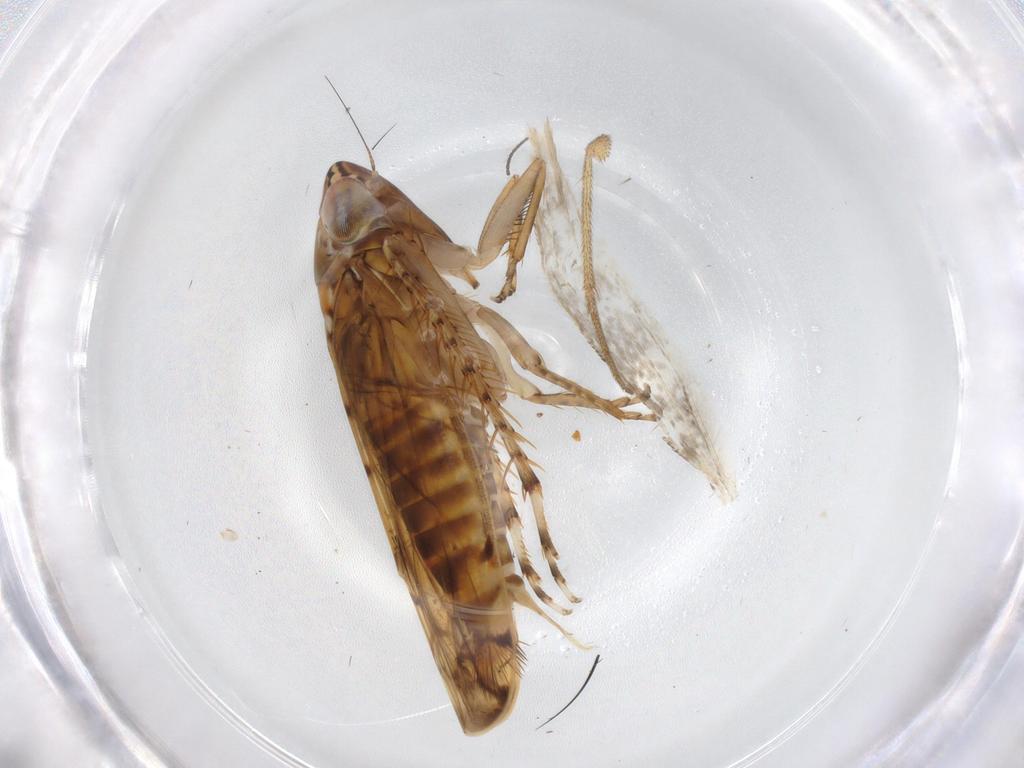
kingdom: Animalia
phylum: Arthropoda
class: Insecta
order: Hemiptera
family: Cicadellidae
